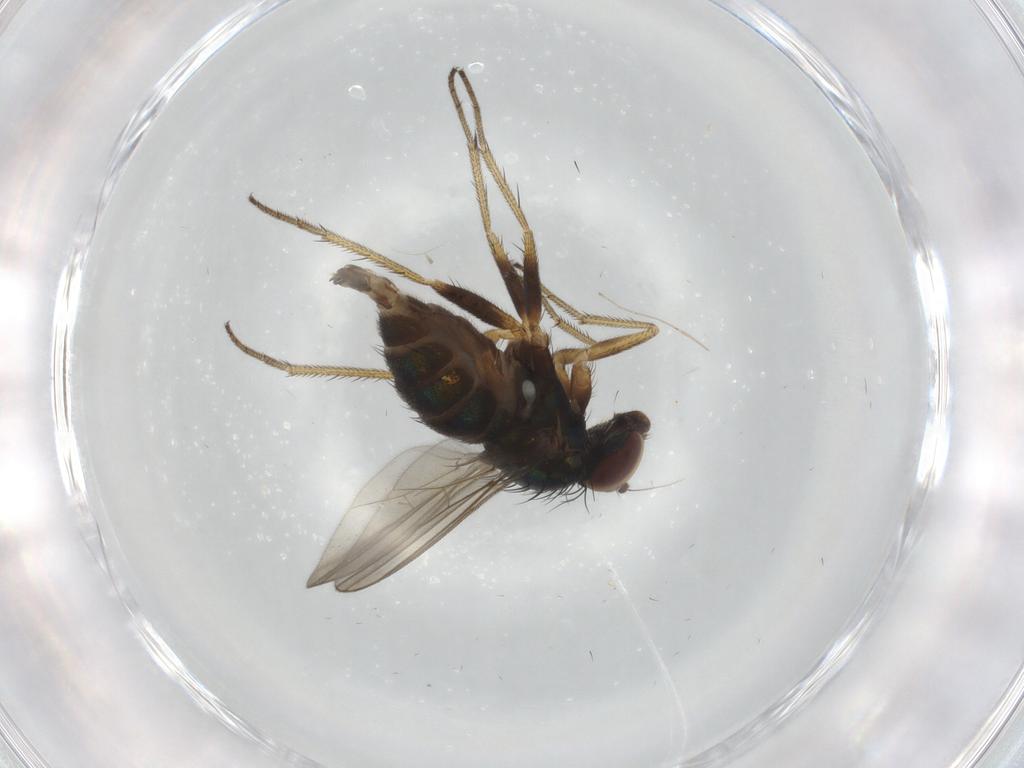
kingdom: Animalia
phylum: Arthropoda
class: Insecta
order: Diptera
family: Dolichopodidae
